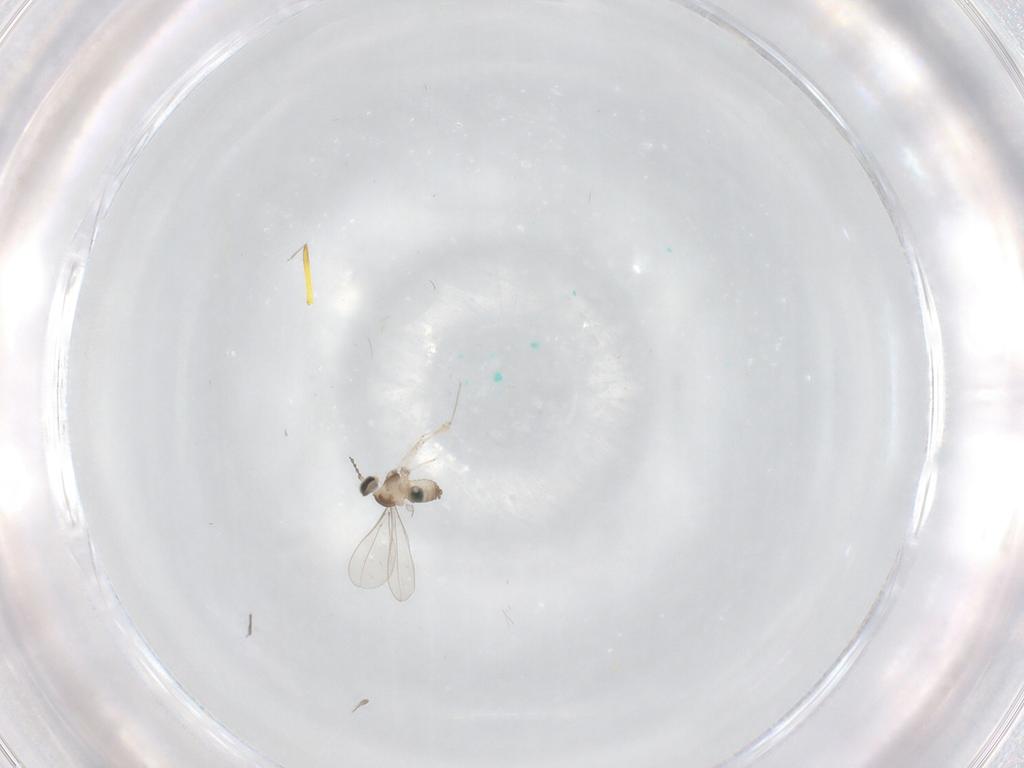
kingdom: Animalia
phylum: Arthropoda
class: Insecta
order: Diptera
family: Cecidomyiidae
